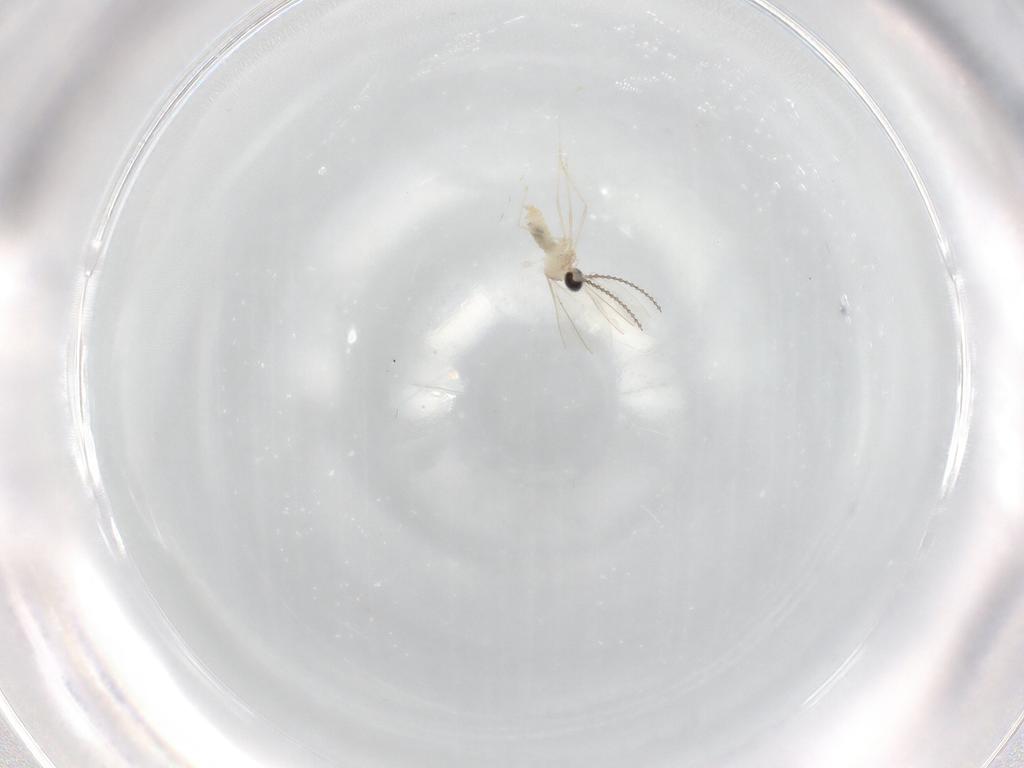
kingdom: Animalia
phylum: Arthropoda
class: Insecta
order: Diptera
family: Cecidomyiidae
